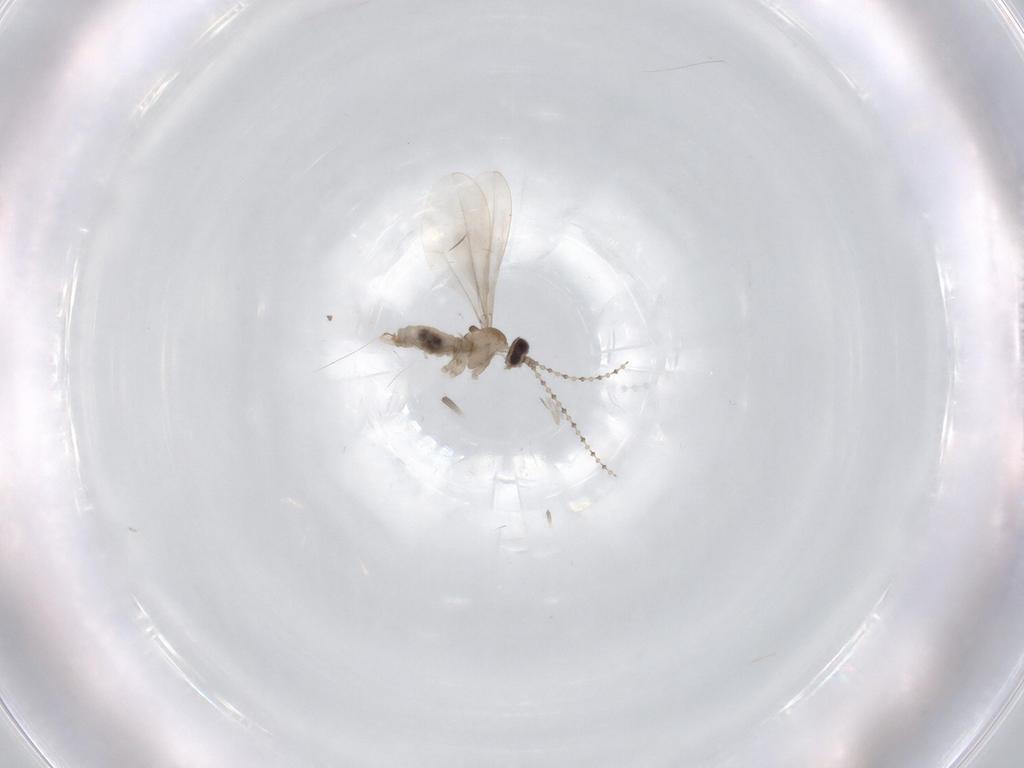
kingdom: Animalia
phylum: Arthropoda
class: Insecta
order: Diptera
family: Cecidomyiidae
